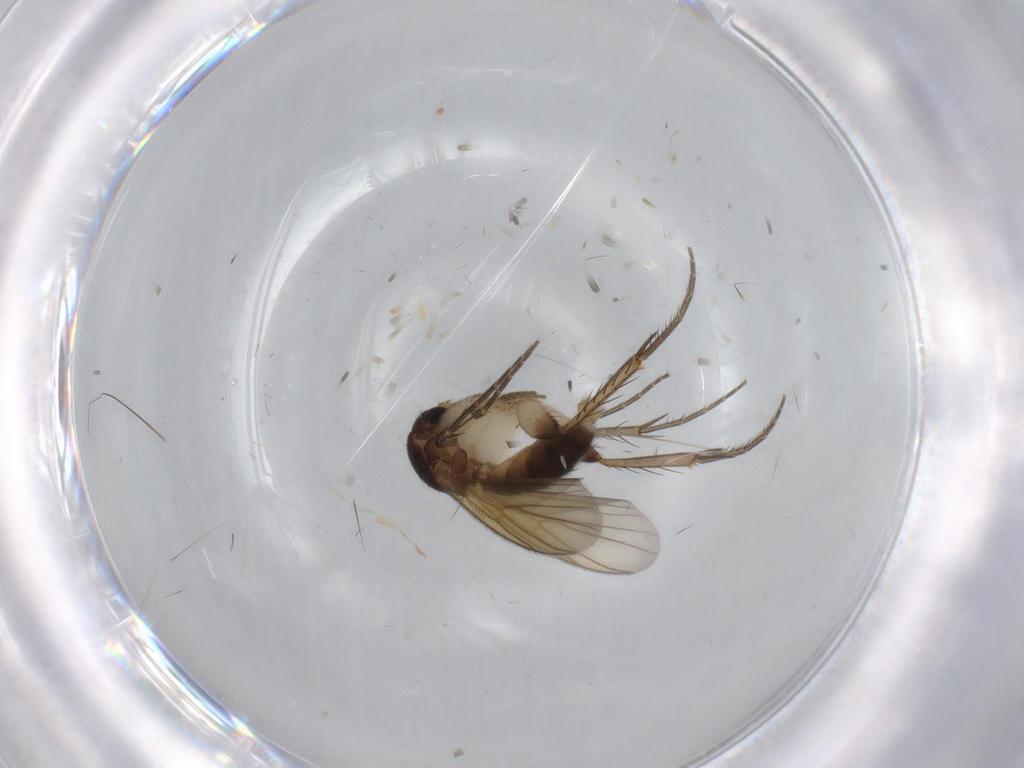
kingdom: Animalia
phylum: Arthropoda
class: Insecta
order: Diptera
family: Cecidomyiidae
